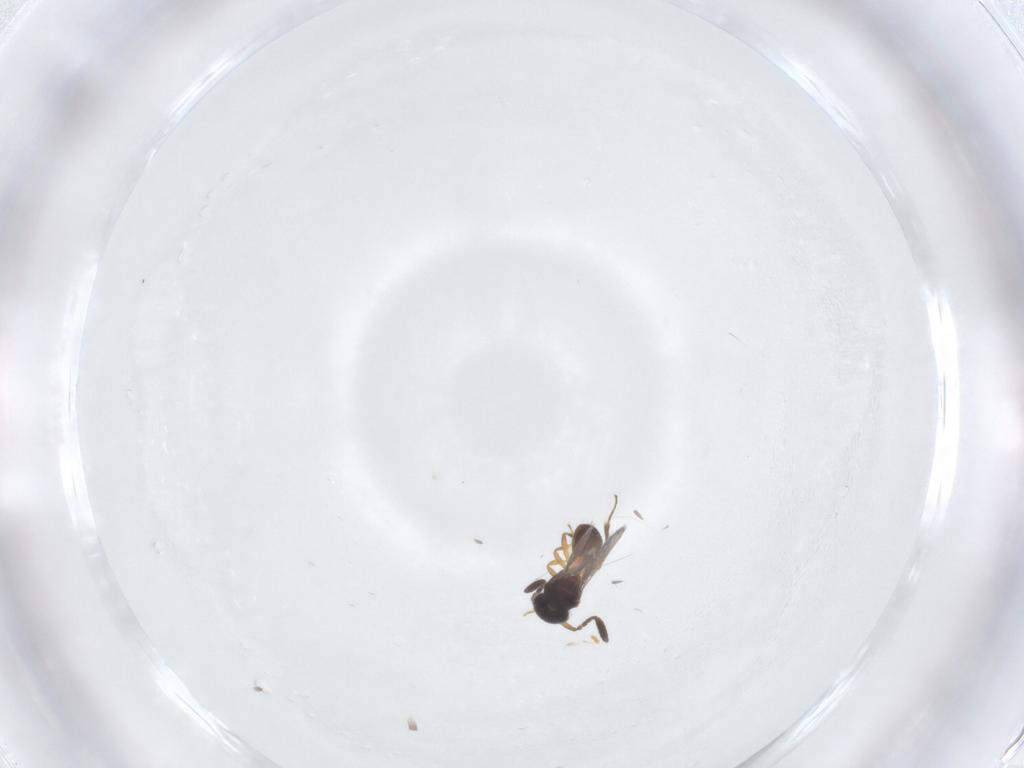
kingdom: Animalia
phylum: Arthropoda
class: Insecta
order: Hymenoptera
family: Scelionidae
